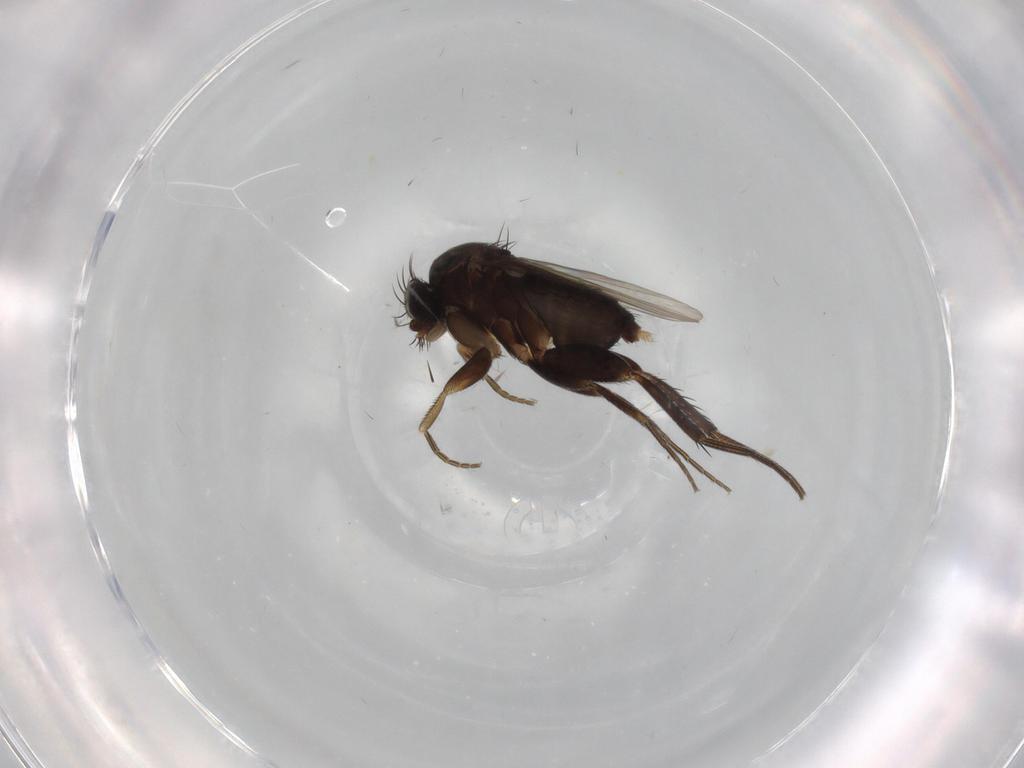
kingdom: Animalia
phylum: Arthropoda
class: Insecta
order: Diptera
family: Phoridae
